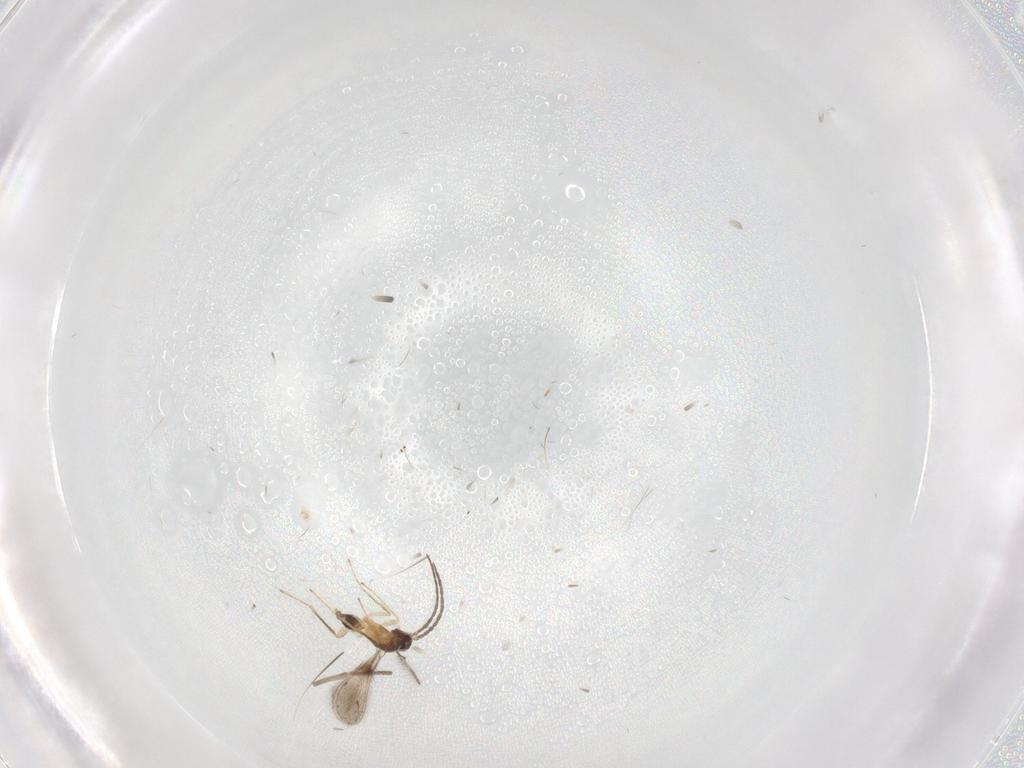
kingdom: Animalia
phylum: Arthropoda
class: Insecta
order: Hymenoptera
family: Mymaridae
